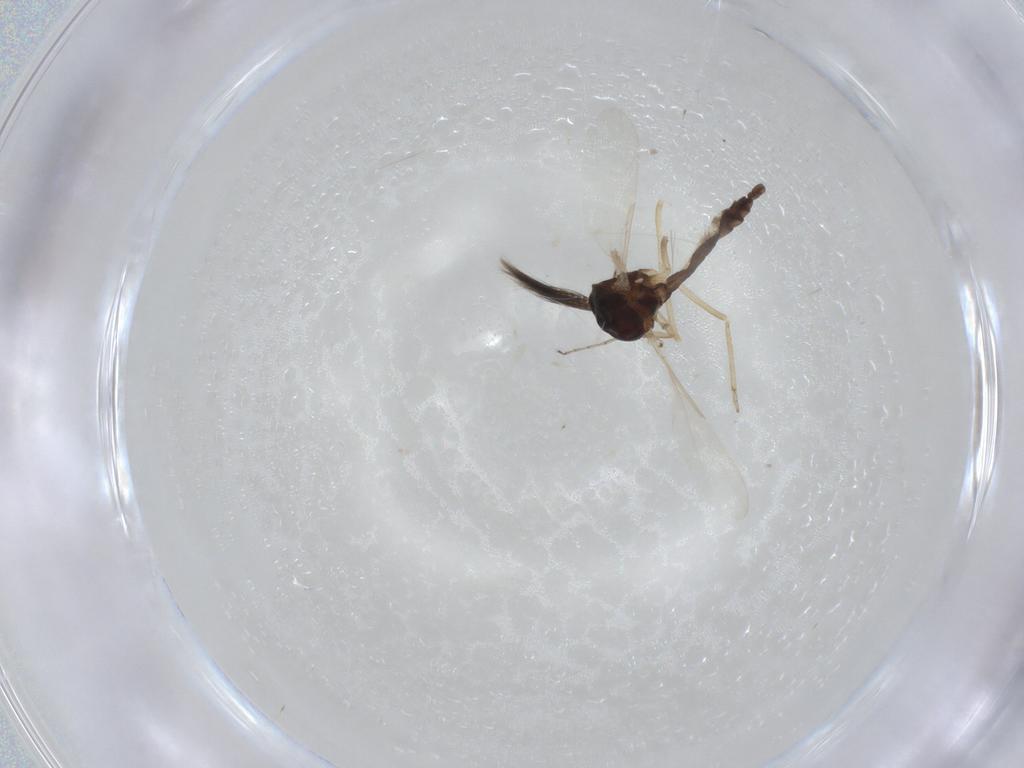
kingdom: Animalia
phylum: Arthropoda
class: Insecta
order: Diptera
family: Ceratopogonidae
